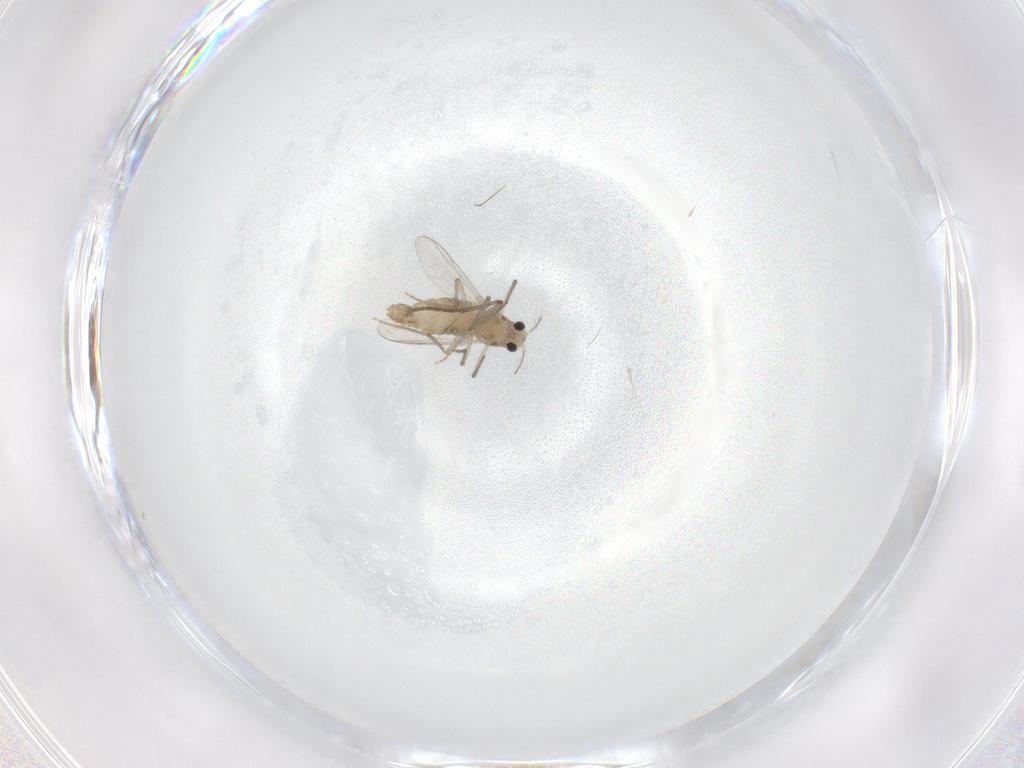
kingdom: Animalia
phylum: Arthropoda
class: Insecta
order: Diptera
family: Chironomidae
